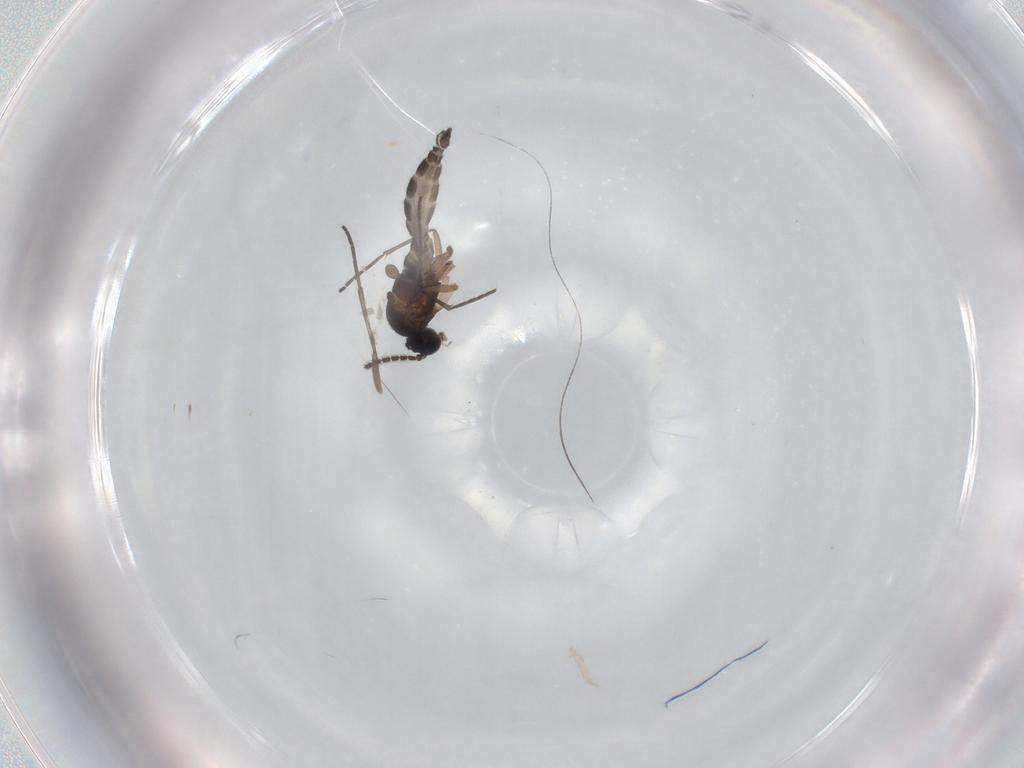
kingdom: Animalia
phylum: Arthropoda
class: Insecta
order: Diptera
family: Sciaridae
